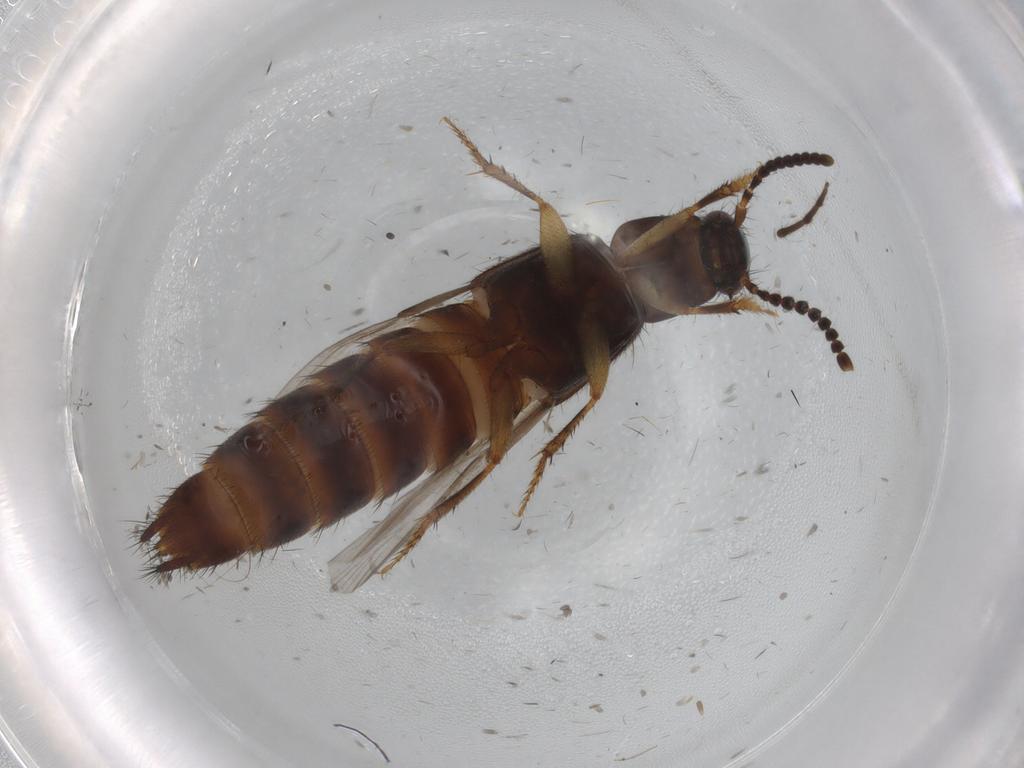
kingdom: Animalia
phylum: Arthropoda
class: Insecta
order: Coleoptera
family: Staphylinidae
